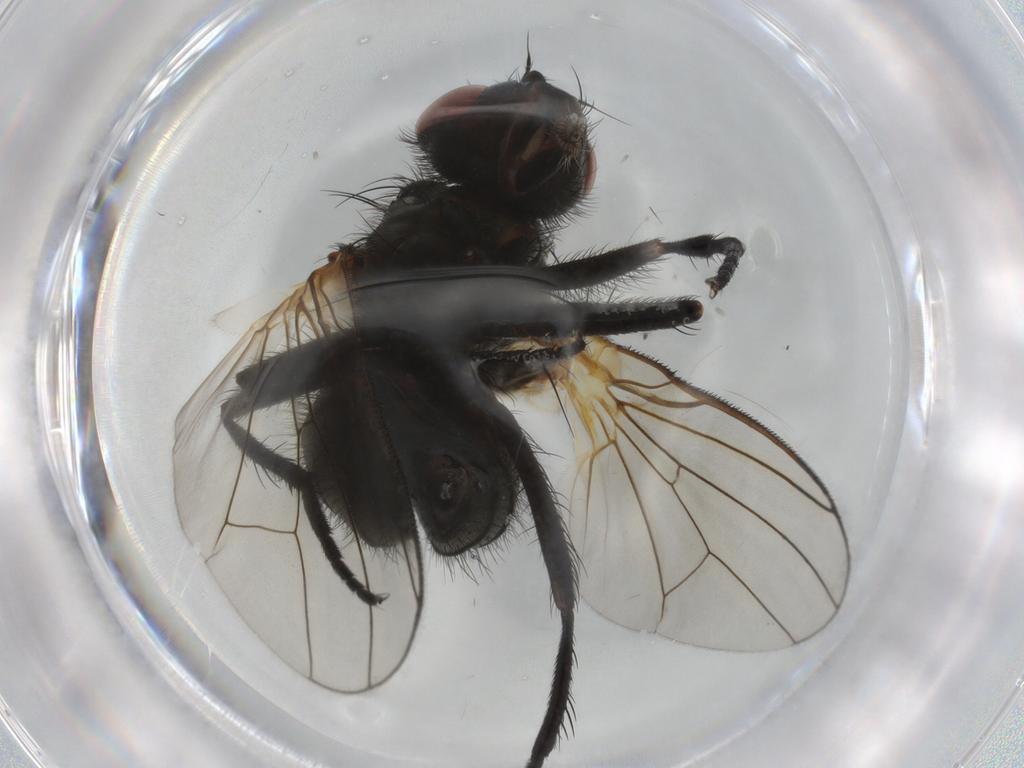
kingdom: Animalia
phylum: Arthropoda
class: Insecta
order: Diptera
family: Anthomyiidae
